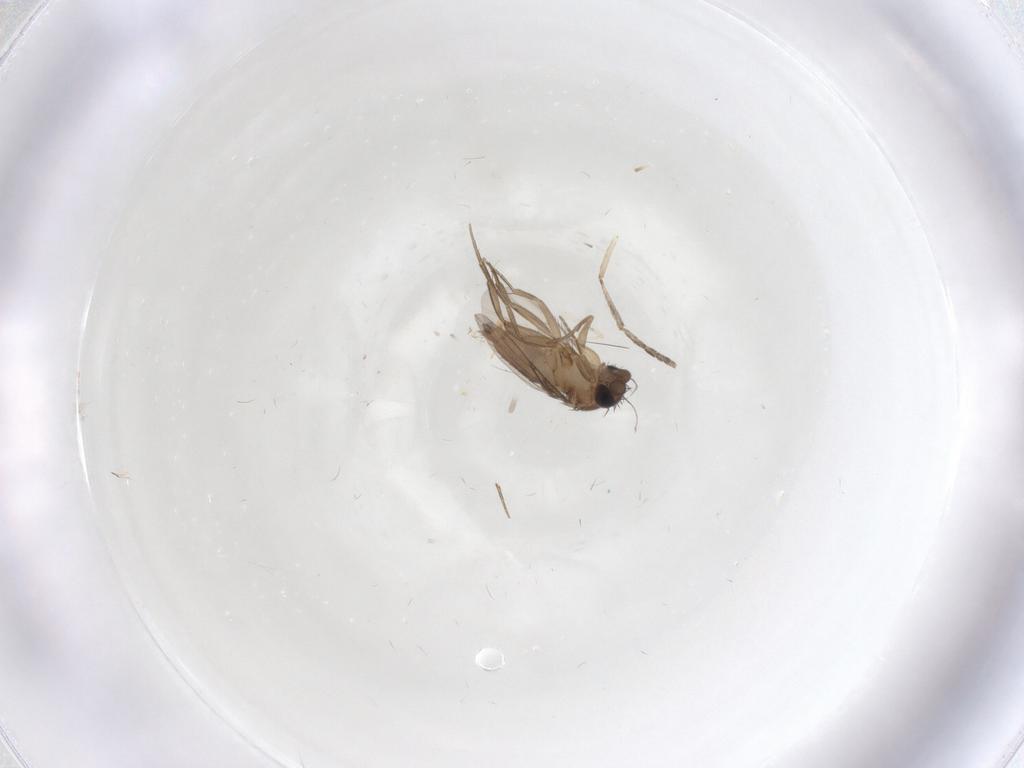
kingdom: Animalia
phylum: Arthropoda
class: Insecta
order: Diptera
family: Phoridae
